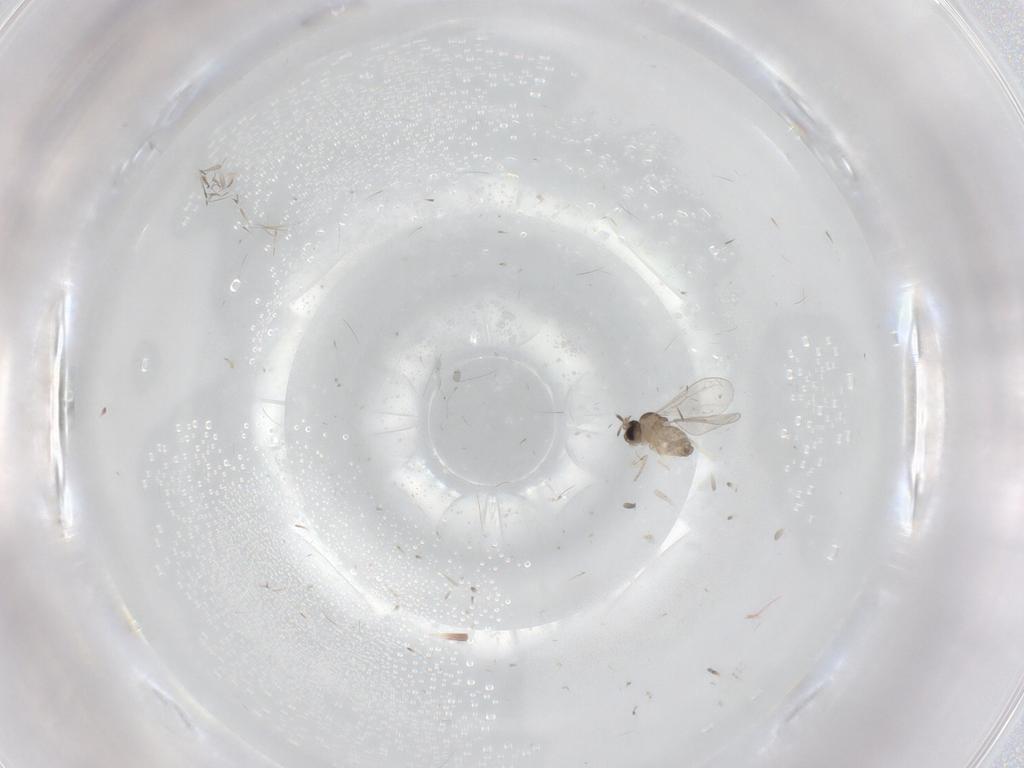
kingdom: Animalia
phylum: Arthropoda
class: Insecta
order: Diptera
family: Cecidomyiidae
